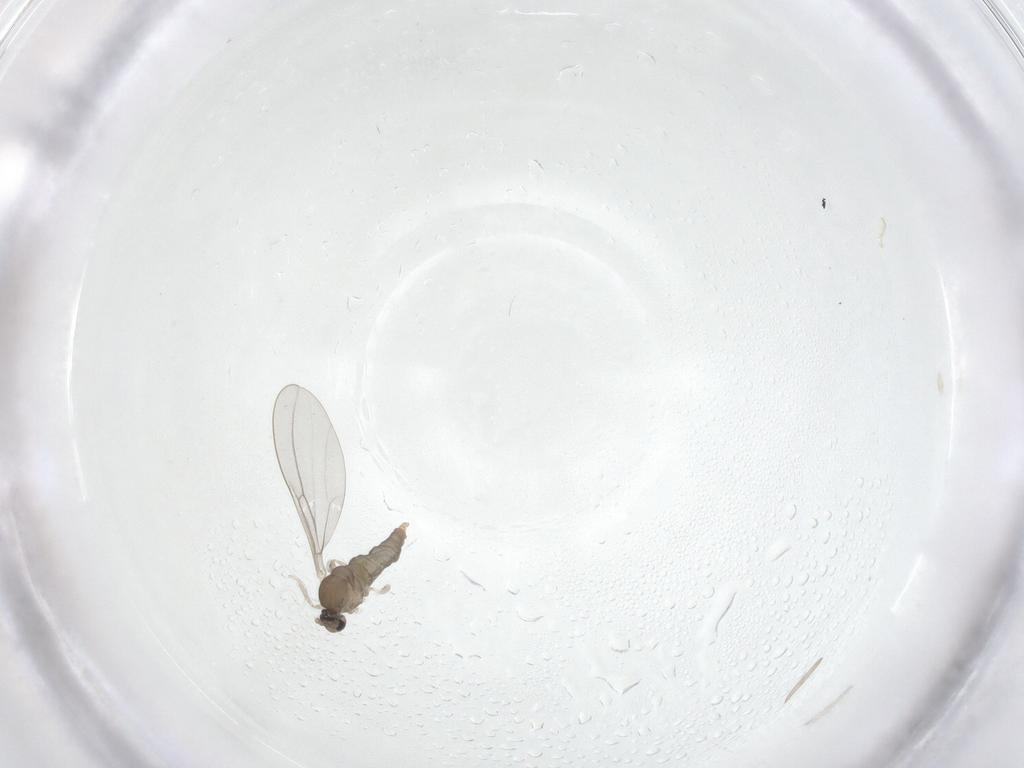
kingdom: Animalia
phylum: Arthropoda
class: Insecta
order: Diptera
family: Cecidomyiidae
